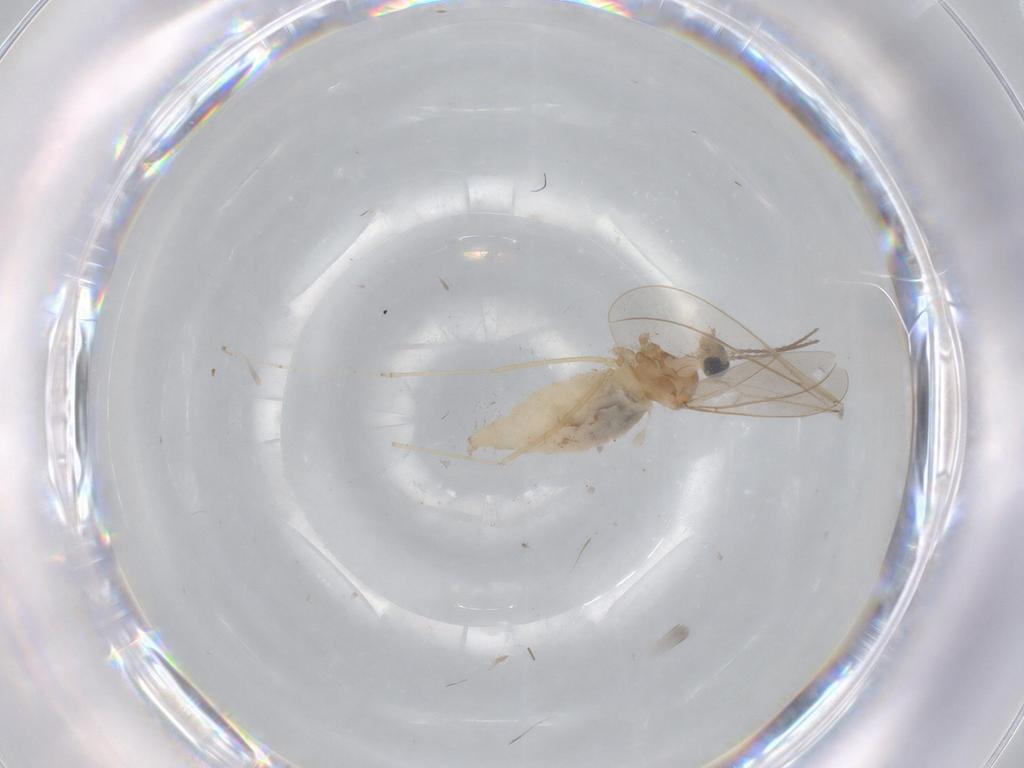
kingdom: Animalia
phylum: Arthropoda
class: Insecta
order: Diptera
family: Cecidomyiidae
